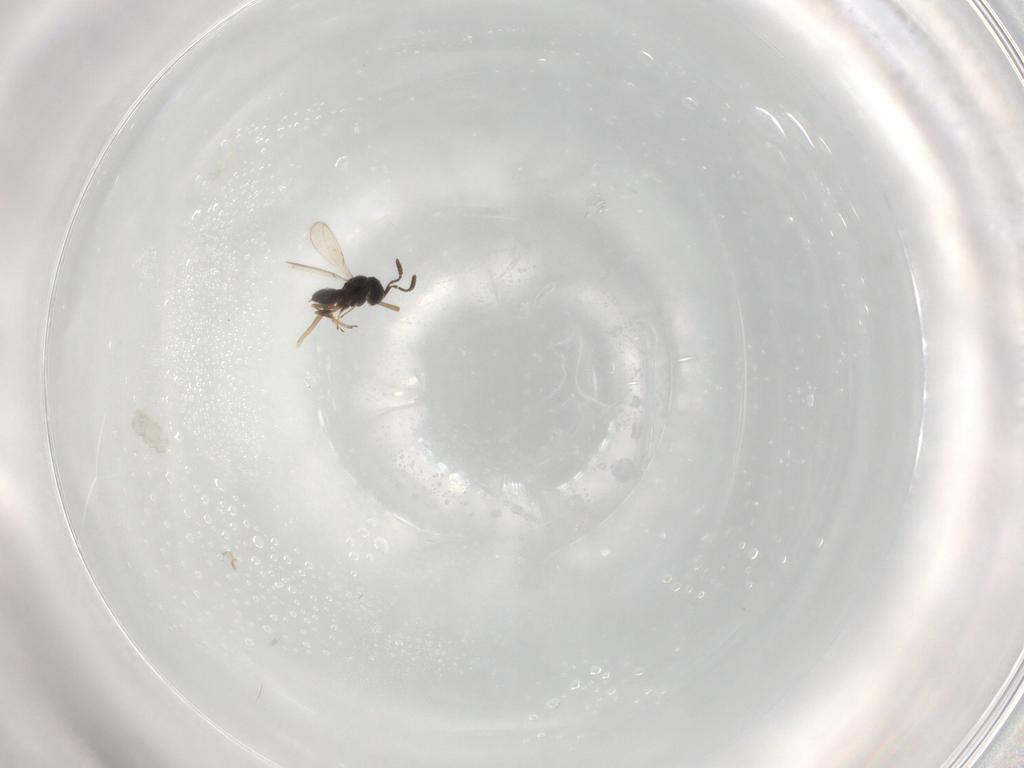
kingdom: Animalia
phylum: Arthropoda
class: Insecta
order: Hymenoptera
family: Scelionidae
